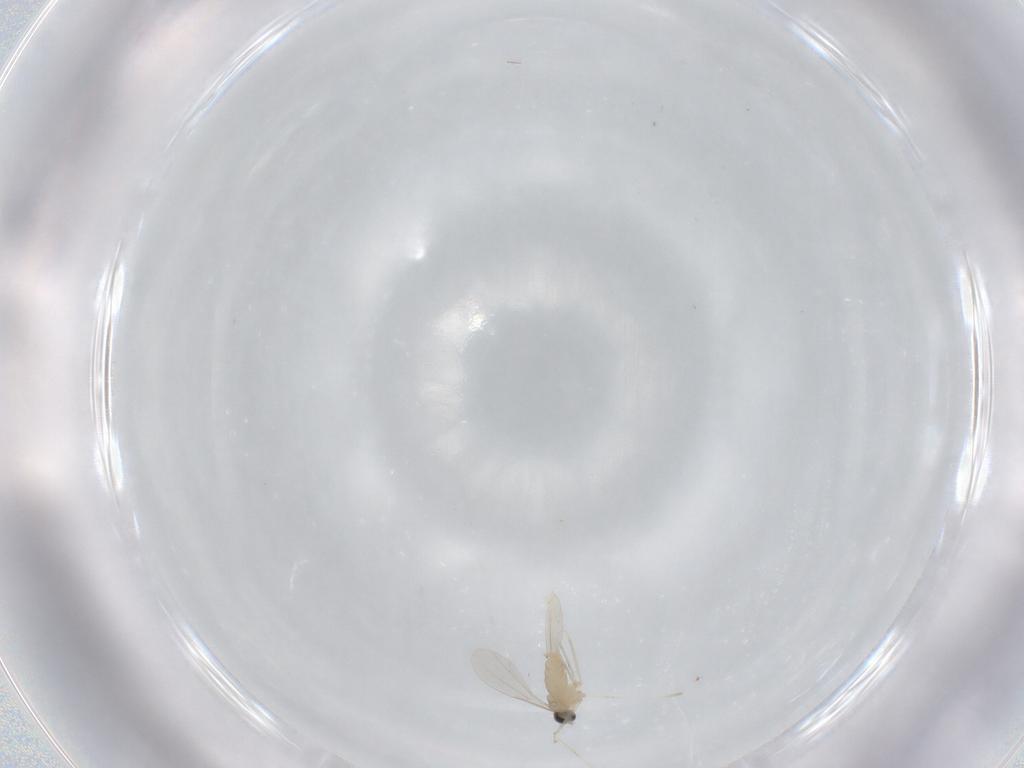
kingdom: Animalia
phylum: Arthropoda
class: Insecta
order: Diptera
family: Cecidomyiidae
